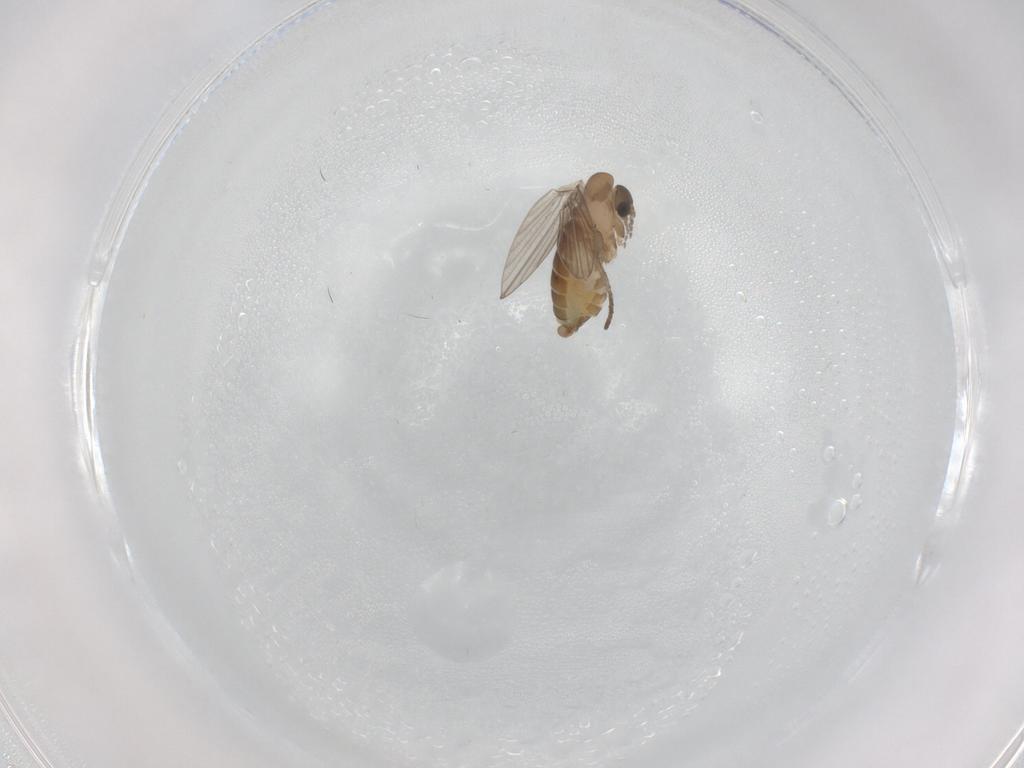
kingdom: Animalia
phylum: Arthropoda
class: Insecta
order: Diptera
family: Psychodidae
